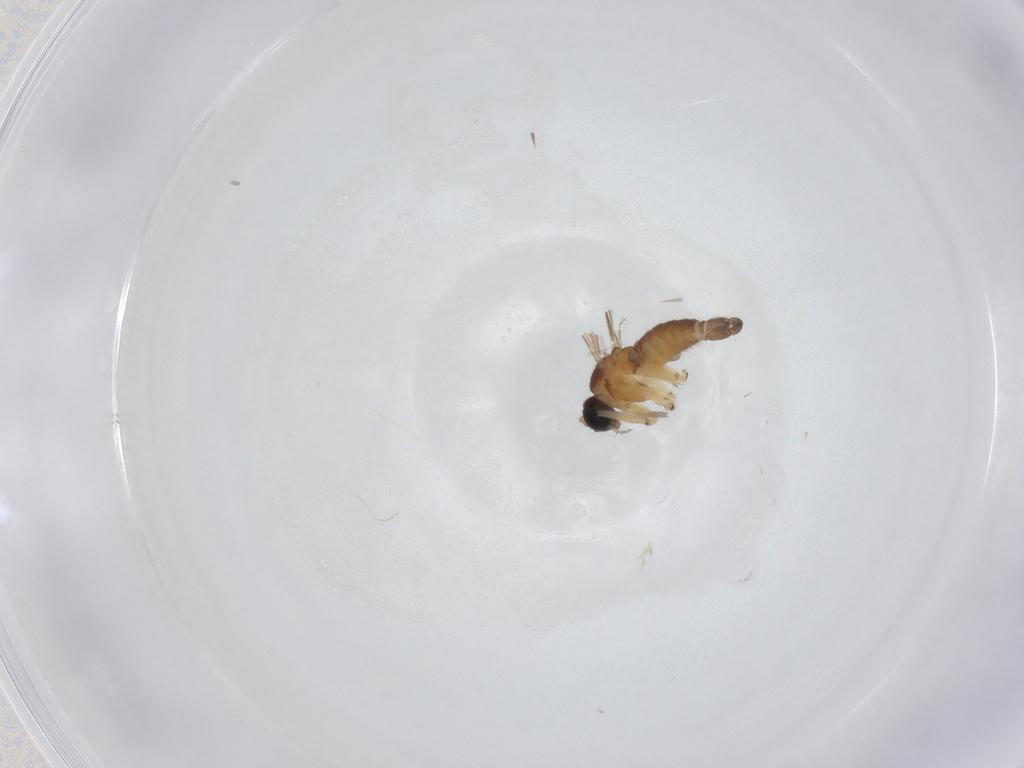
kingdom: Animalia
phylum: Arthropoda
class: Insecta
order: Diptera
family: Sciaridae
